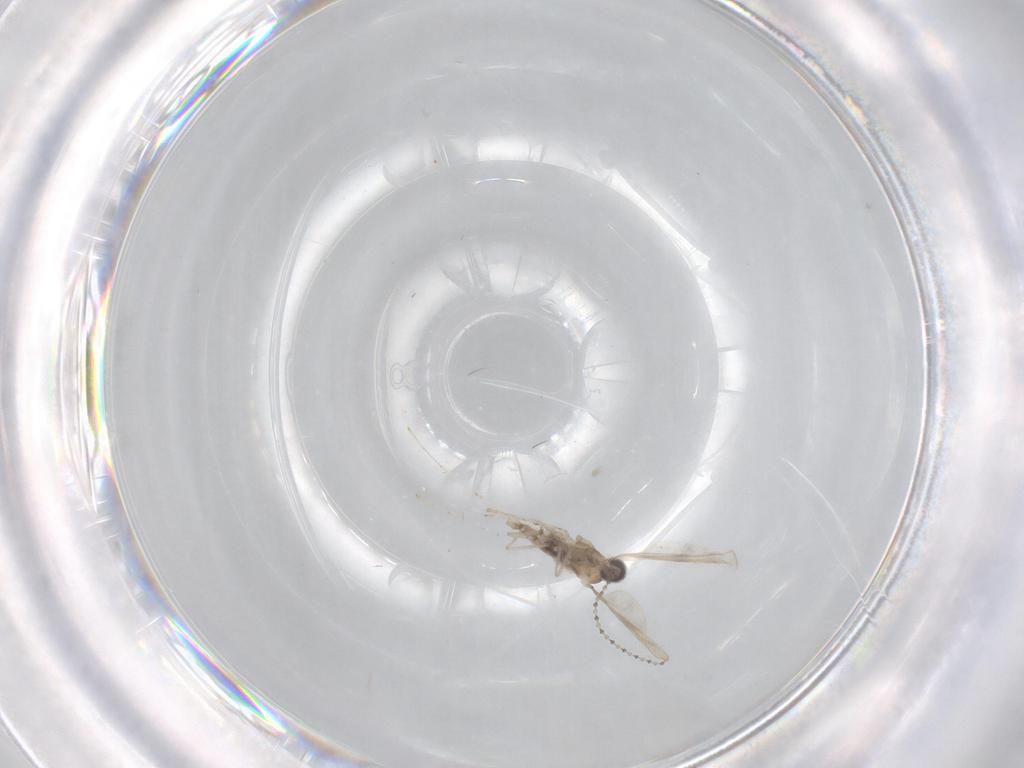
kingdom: Animalia
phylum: Arthropoda
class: Insecta
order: Diptera
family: Cecidomyiidae
